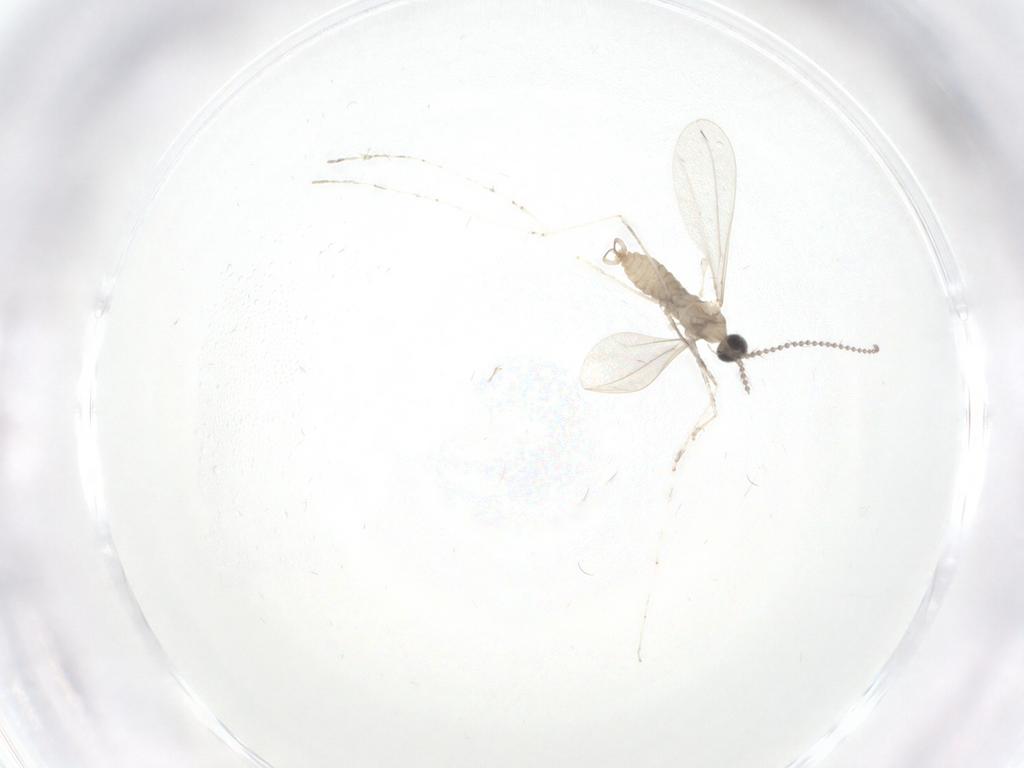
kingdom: Animalia
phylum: Arthropoda
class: Insecta
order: Diptera
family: Cecidomyiidae
